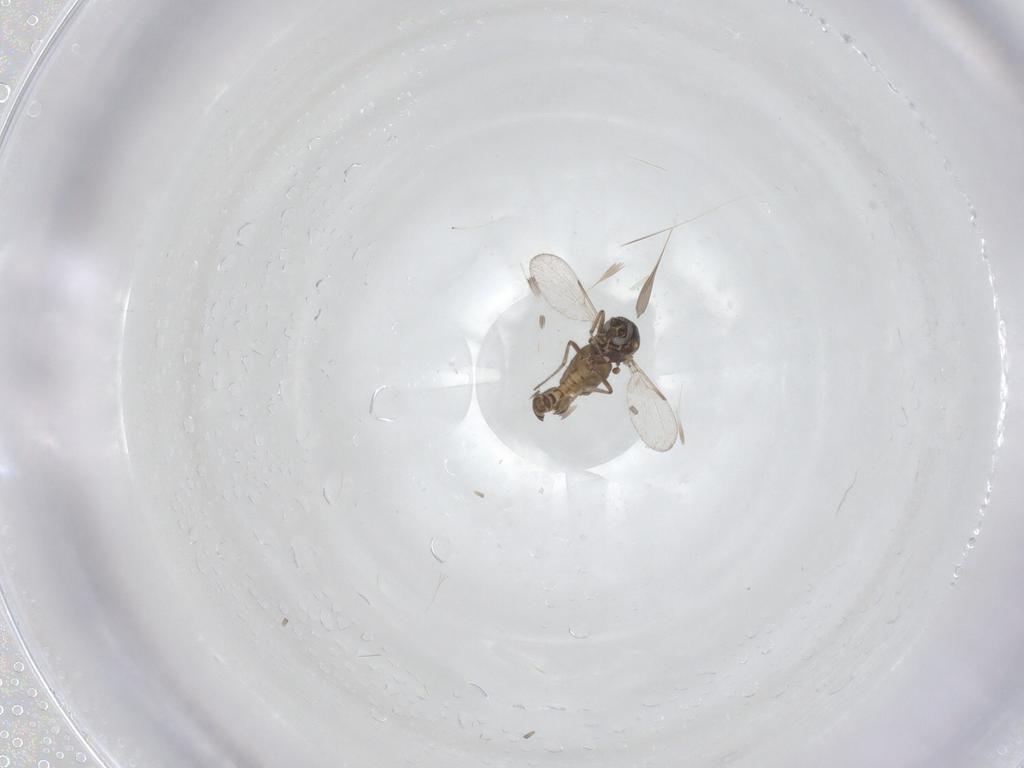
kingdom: Animalia
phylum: Arthropoda
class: Insecta
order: Diptera
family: Ceratopogonidae
